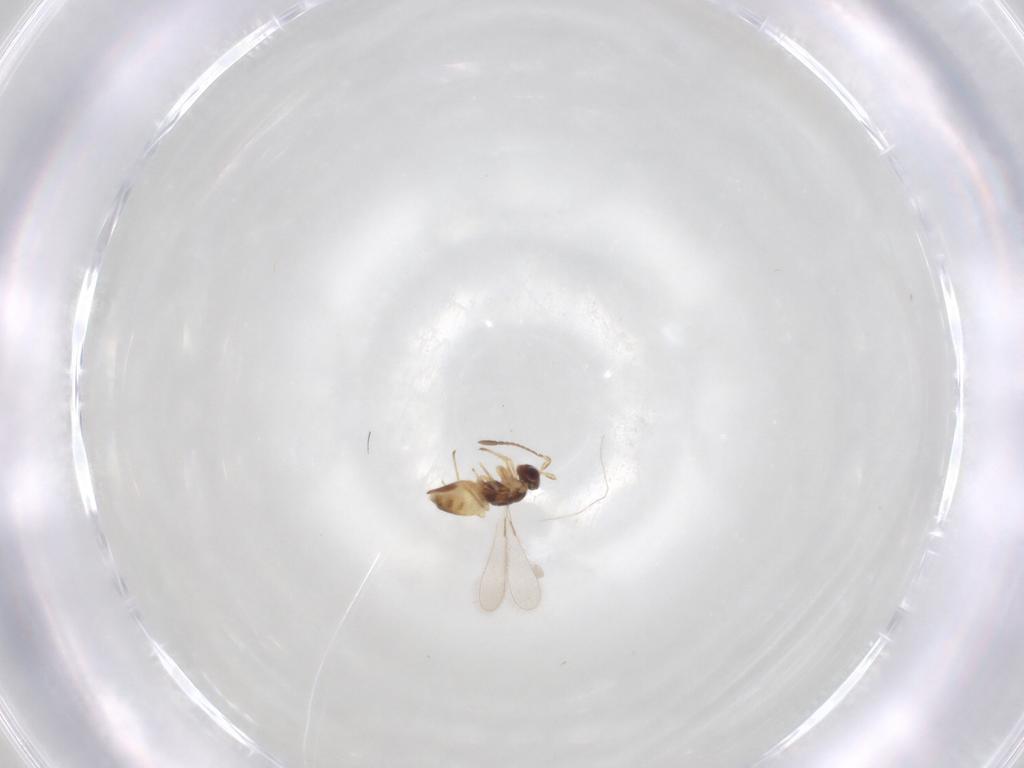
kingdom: Animalia
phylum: Arthropoda
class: Insecta
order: Hymenoptera
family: Mymaridae
